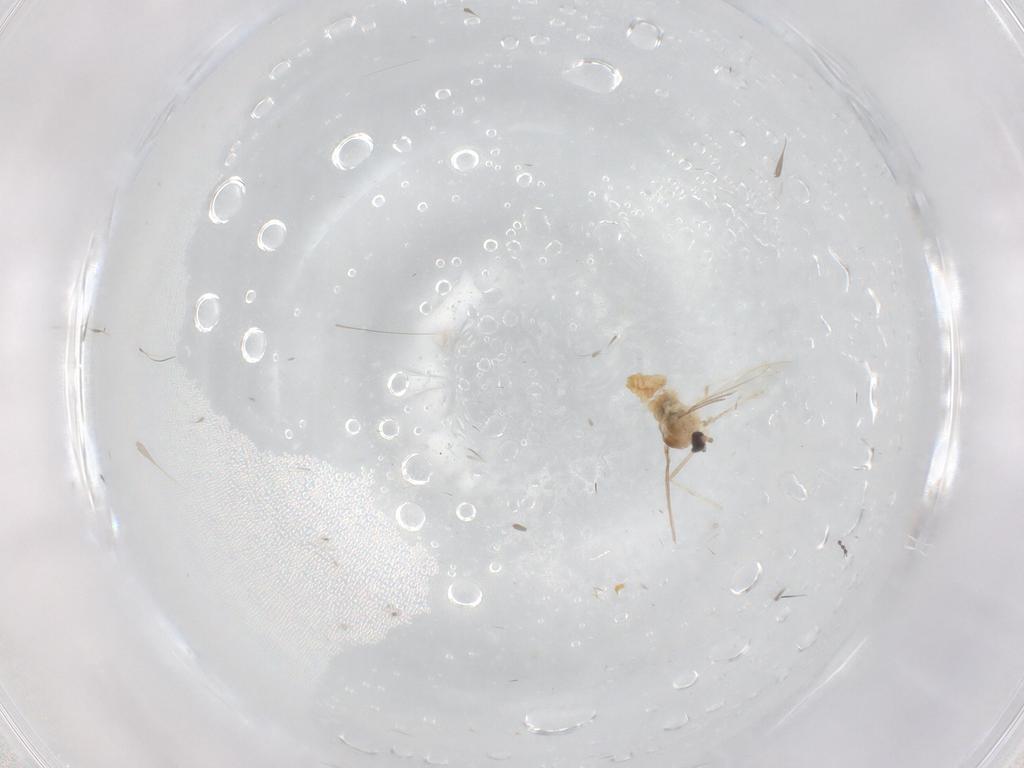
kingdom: Animalia
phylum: Arthropoda
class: Insecta
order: Diptera
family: Cecidomyiidae
